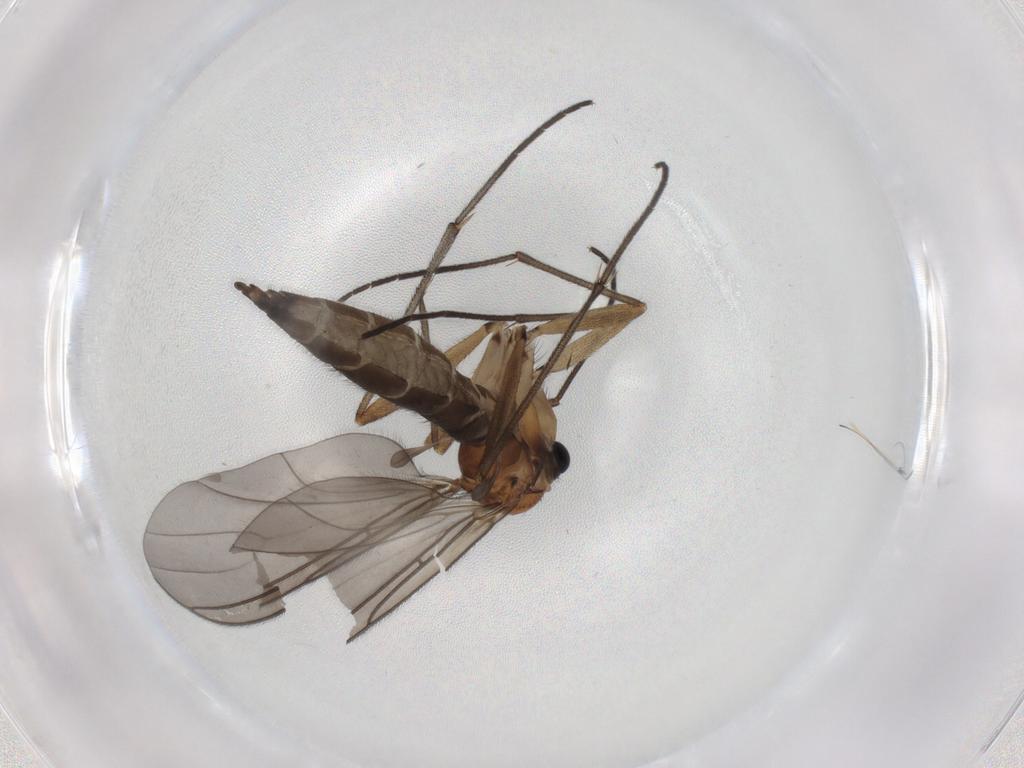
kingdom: Animalia
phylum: Arthropoda
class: Insecta
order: Diptera
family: Sciaridae
